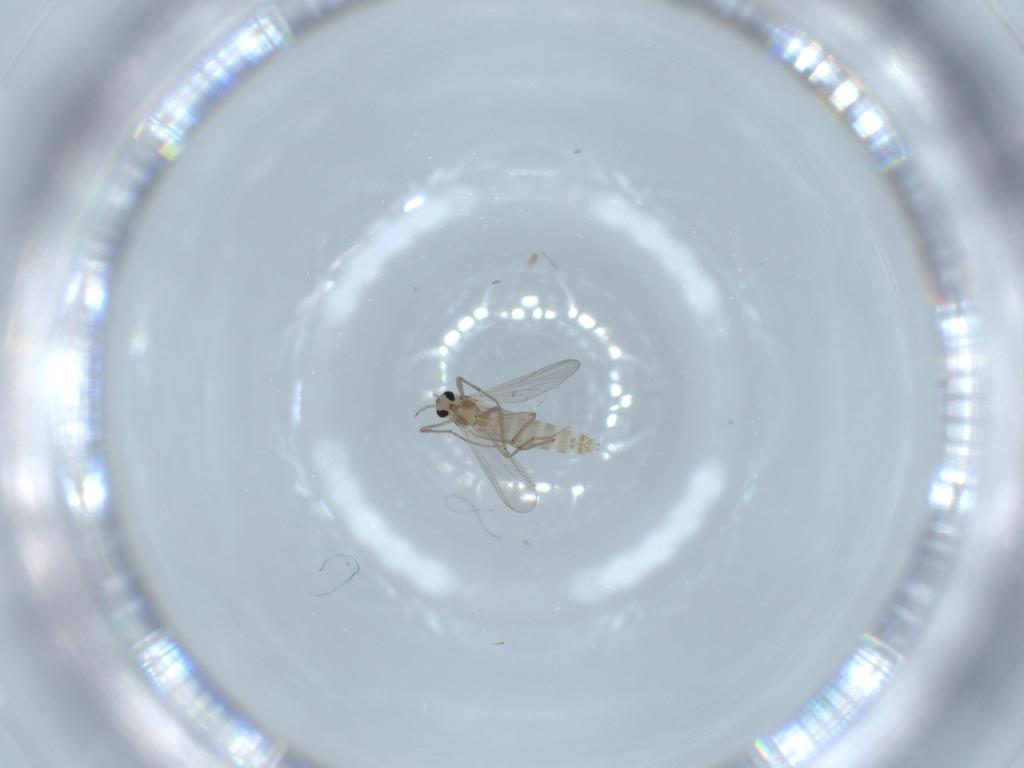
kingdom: Animalia
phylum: Arthropoda
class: Insecta
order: Diptera
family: Chironomidae
